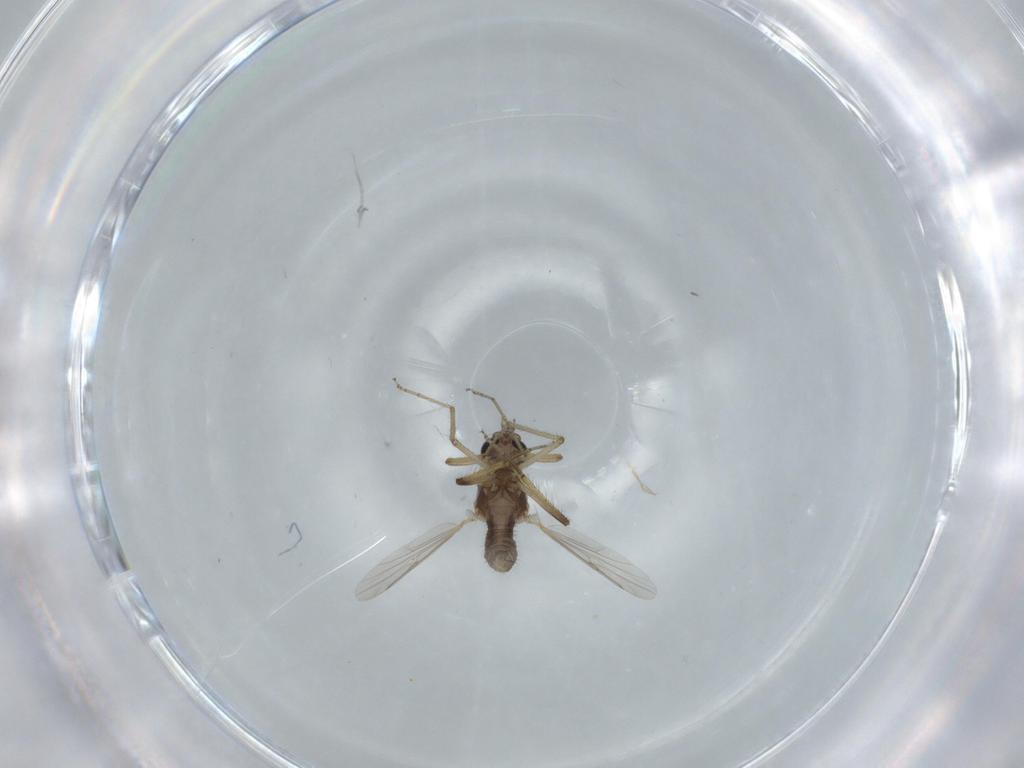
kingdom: Animalia
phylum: Arthropoda
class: Insecta
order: Diptera
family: Ceratopogonidae
